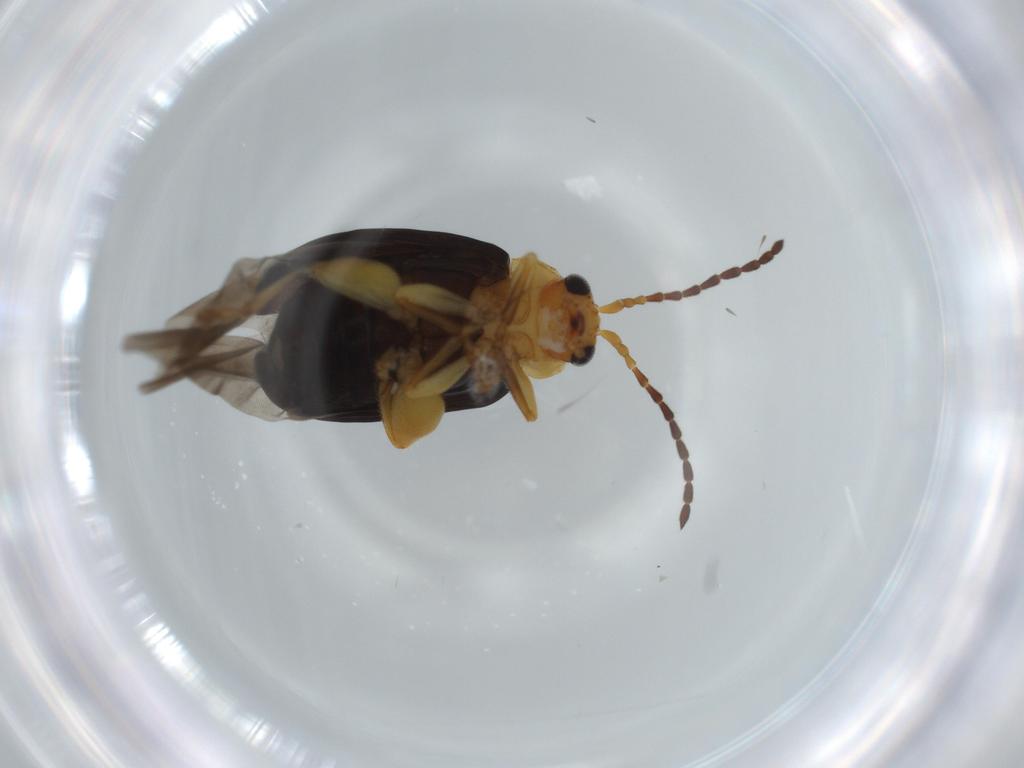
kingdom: Animalia
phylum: Arthropoda
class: Insecta
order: Coleoptera
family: Chrysomelidae
